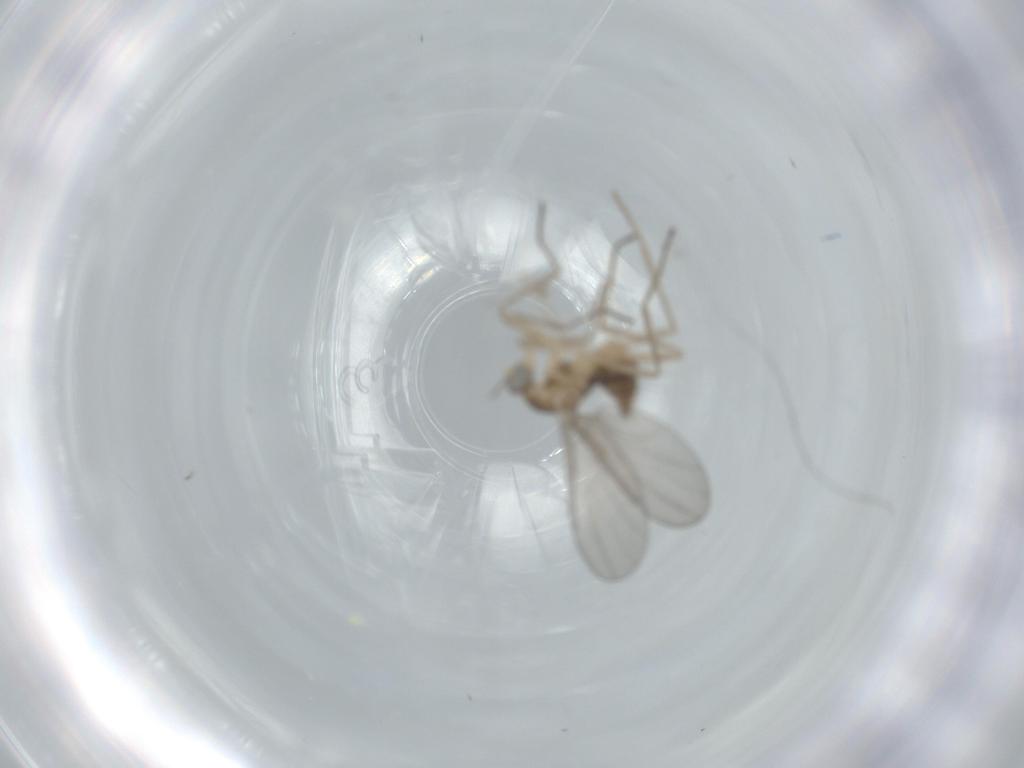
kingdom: Animalia
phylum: Arthropoda
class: Insecta
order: Diptera
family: Cecidomyiidae
